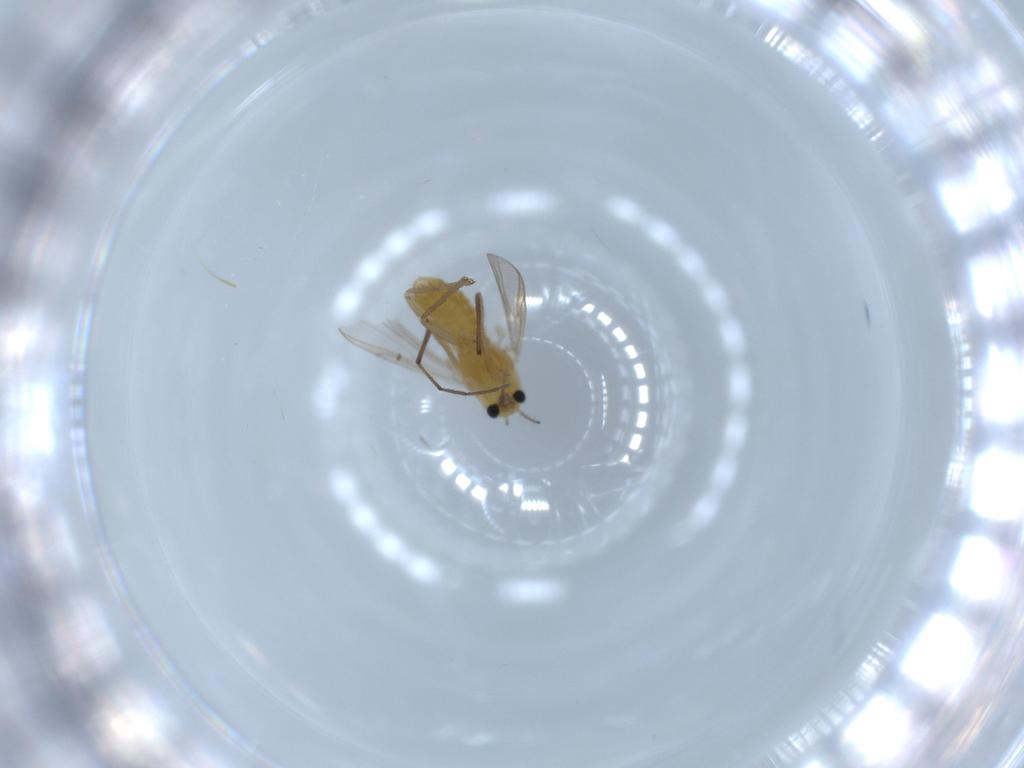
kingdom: Animalia
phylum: Arthropoda
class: Insecta
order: Diptera
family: Chironomidae
